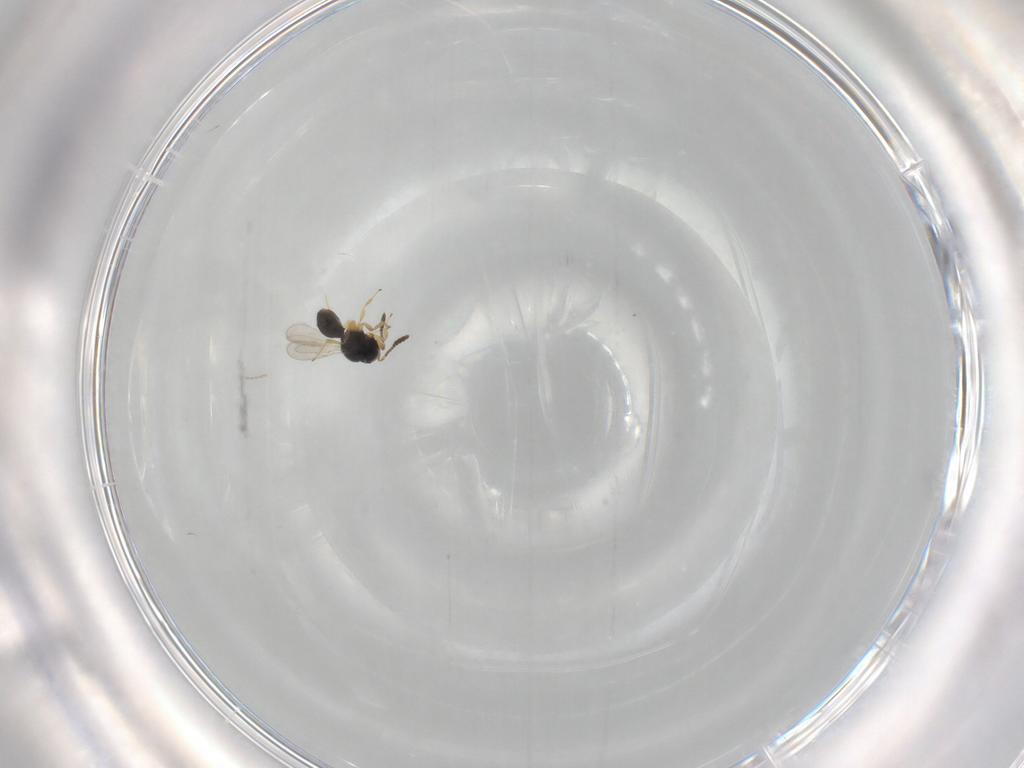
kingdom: Animalia
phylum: Arthropoda
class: Insecta
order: Hymenoptera
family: Scelionidae
